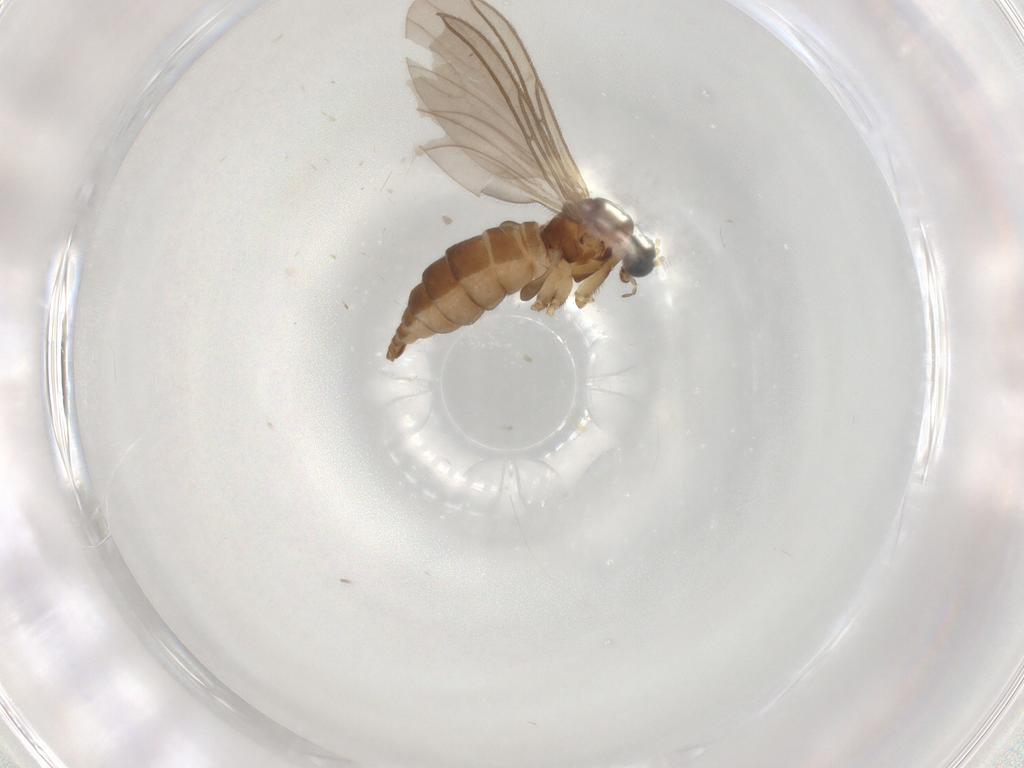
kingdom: Animalia
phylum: Arthropoda
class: Insecta
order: Diptera
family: Sciaridae
